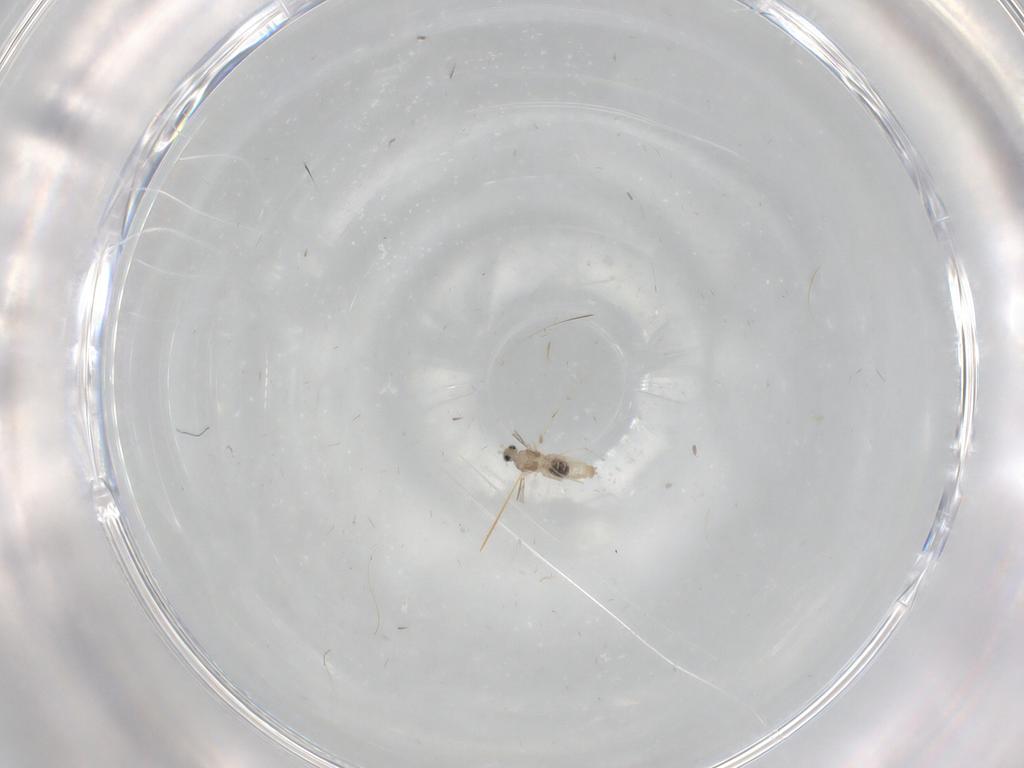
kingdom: Animalia
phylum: Arthropoda
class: Insecta
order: Diptera
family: Cecidomyiidae
